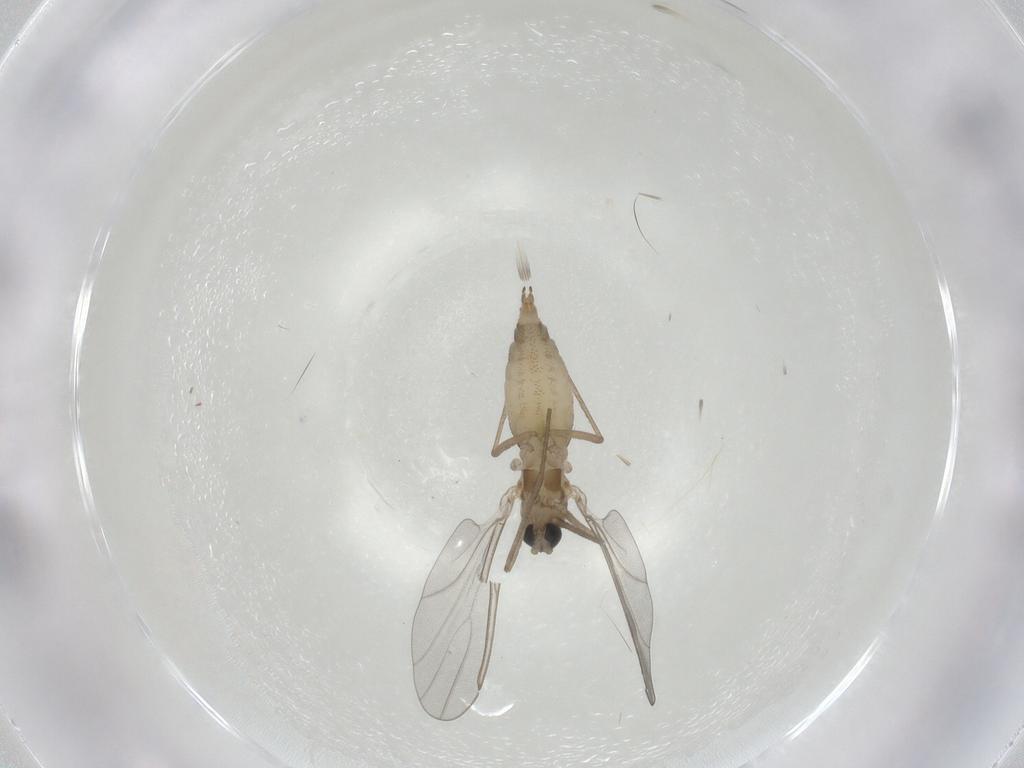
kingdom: Animalia
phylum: Arthropoda
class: Insecta
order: Diptera
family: Cecidomyiidae
